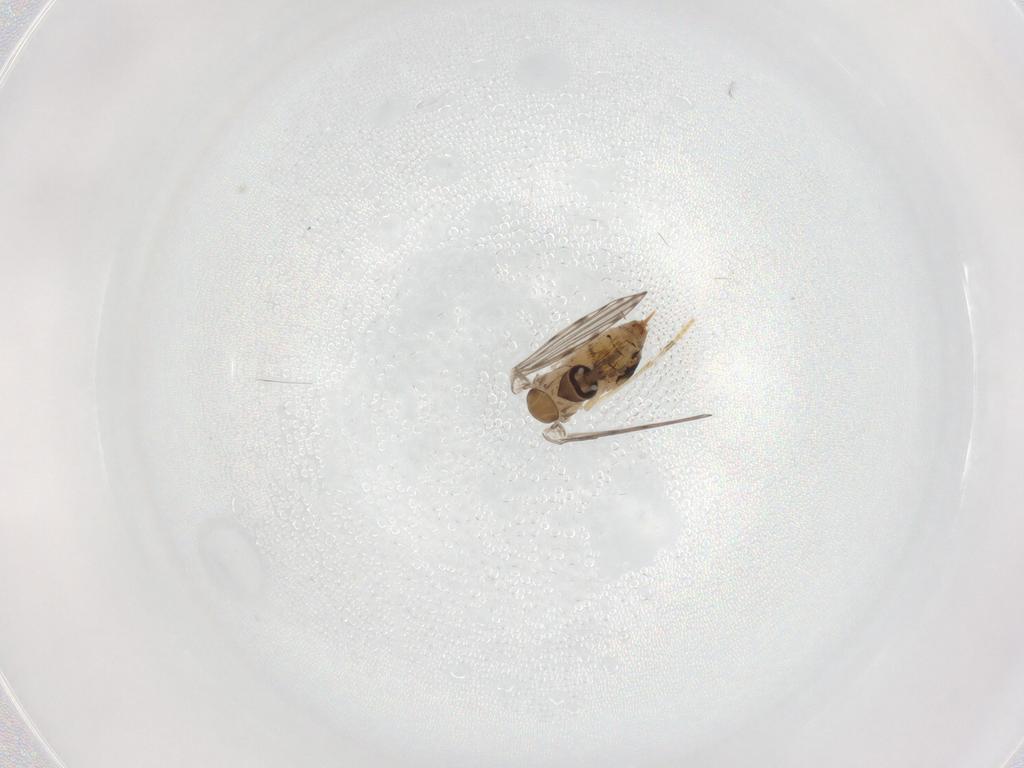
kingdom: Animalia
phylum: Arthropoda
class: Insecta
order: Diptera
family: Psychodidae
